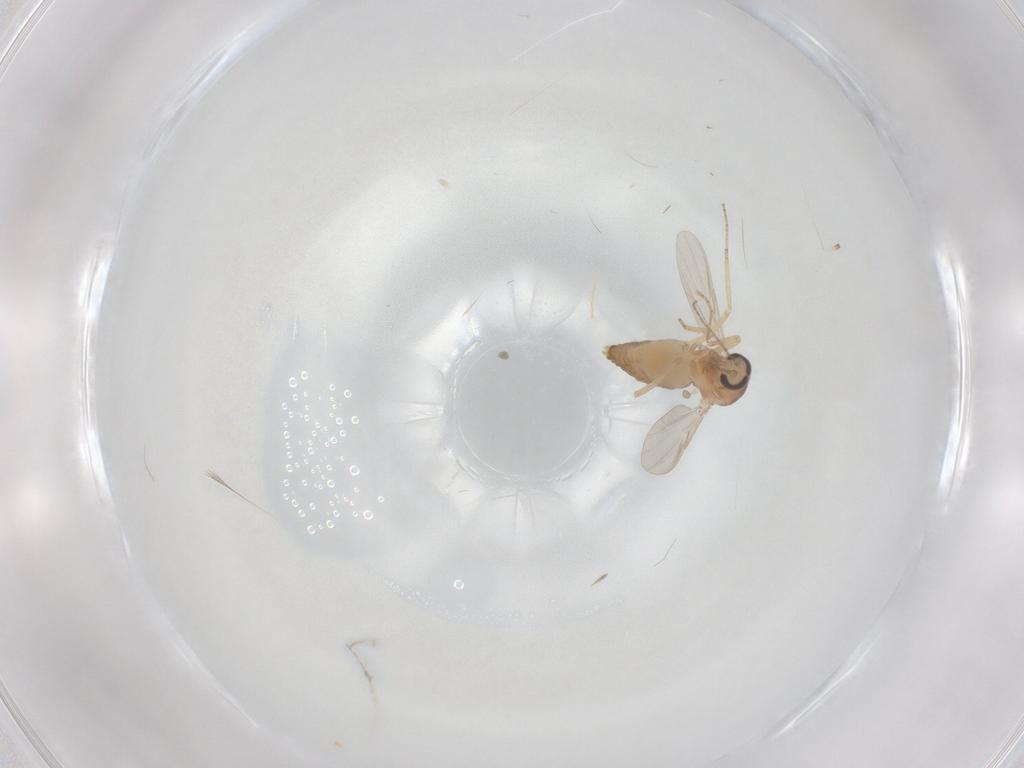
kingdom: Animalia
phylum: Arthropoda
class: Insecta
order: Diptera
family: Ceratopogonidae
